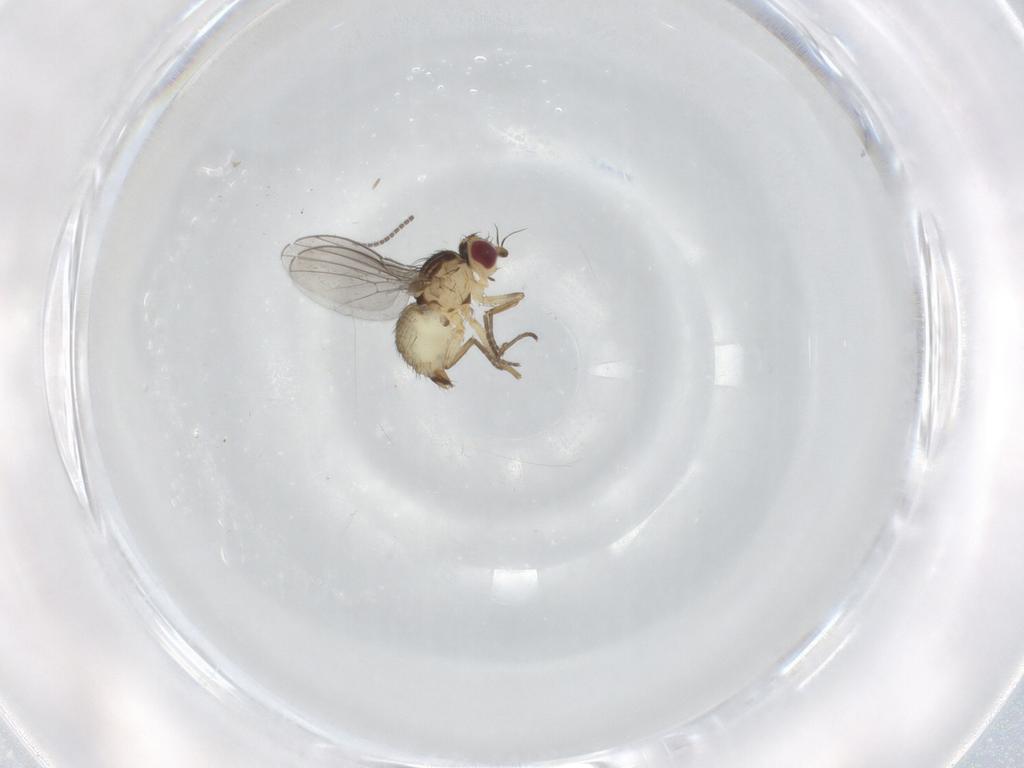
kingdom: Animalia
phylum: Arthropoda
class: Insecta
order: Diptera
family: Agromyzidae
